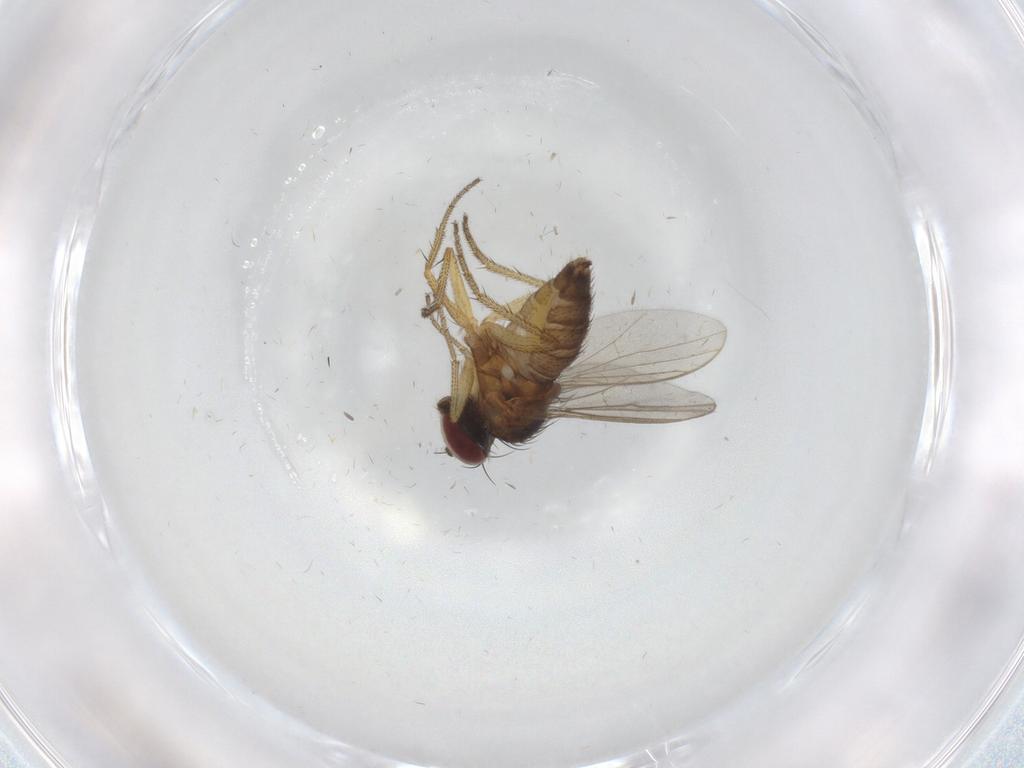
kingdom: Animalia
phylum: Arthropoda
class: Insecta
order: Diptera
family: Dolichopodidae
